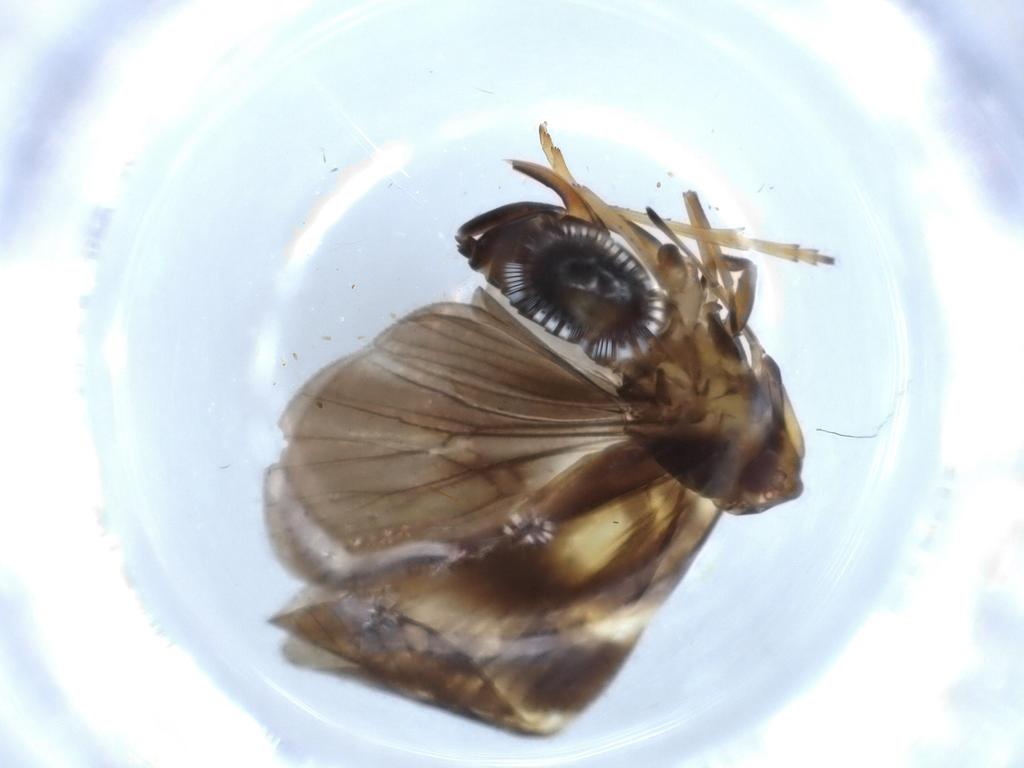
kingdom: Animalia
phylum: Arthropoda
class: Insecta
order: Hemiptera
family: Cixiidae
